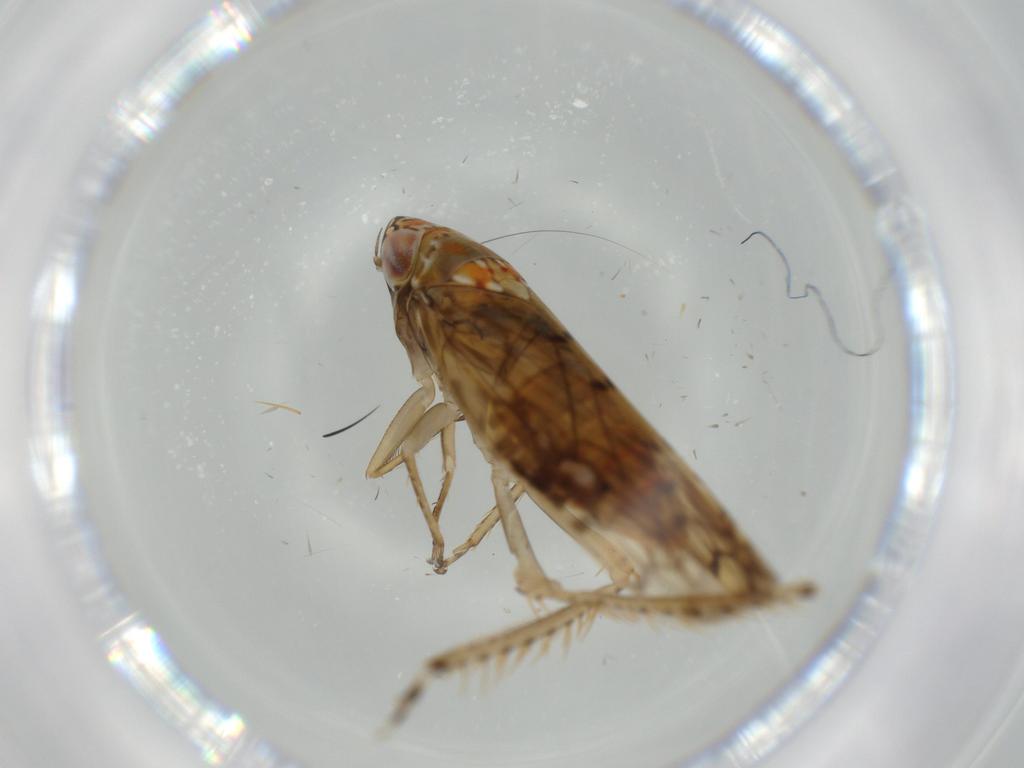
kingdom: Animalia
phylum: Arthropoda
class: Insecta
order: Hemiptera
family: Cicadellidae
